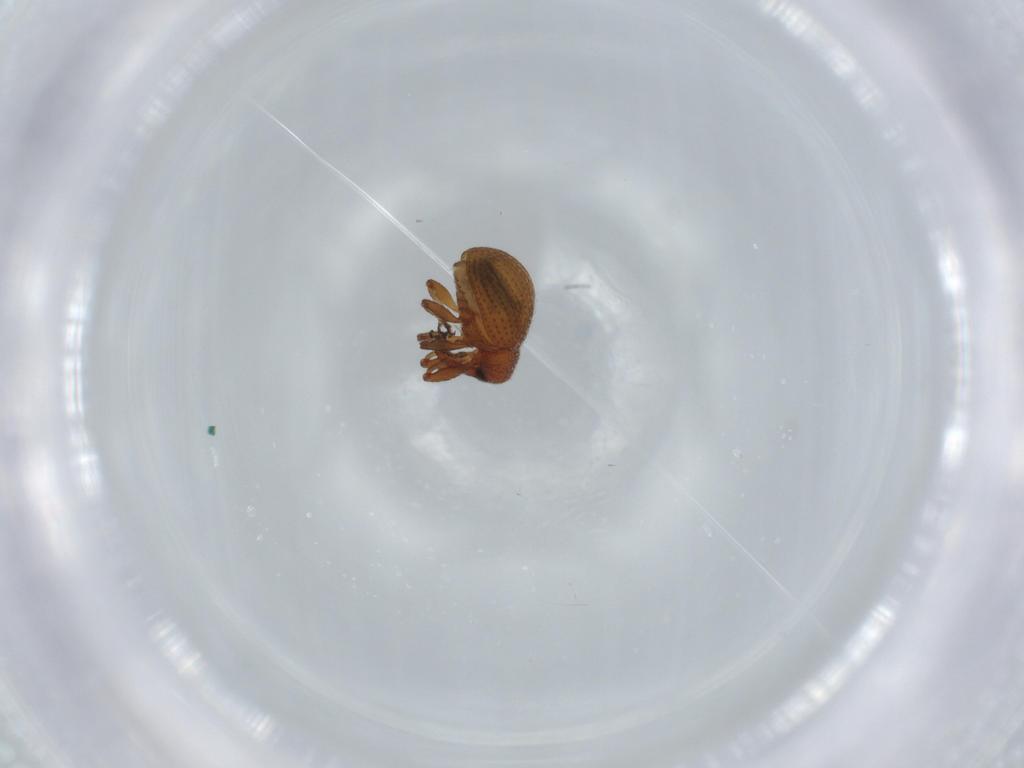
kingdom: Animalia
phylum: Arthropoda
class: Insecta
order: Coleoptera
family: Curculionidae
